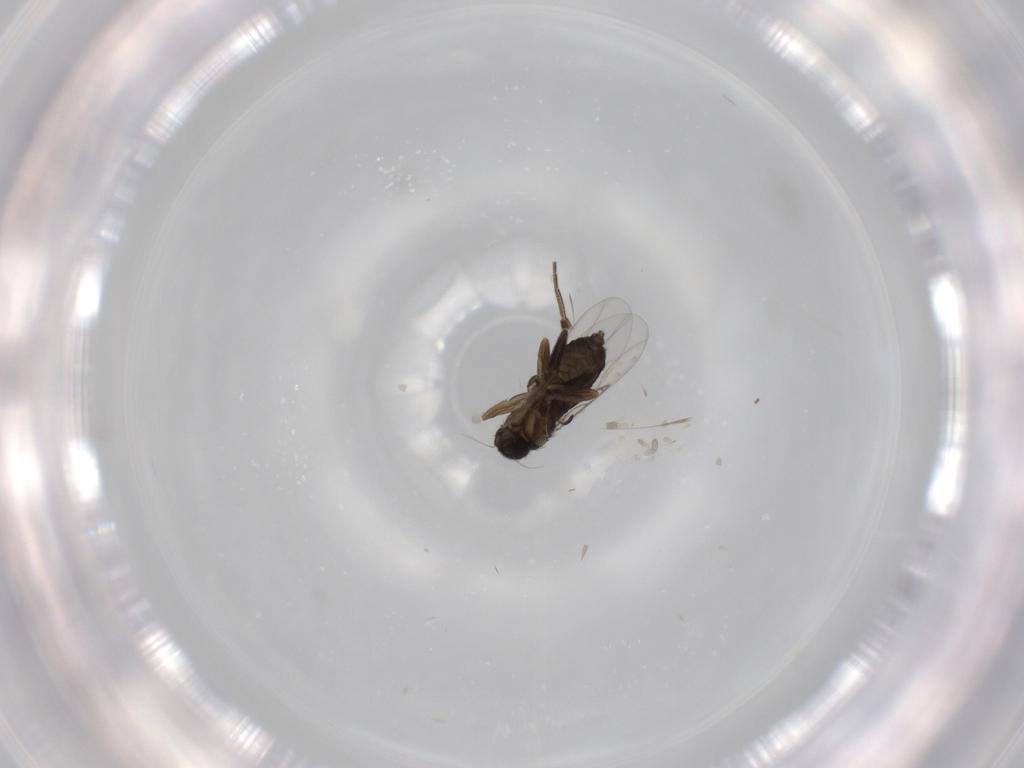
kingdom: Animalia
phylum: Arthropoda
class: Insecta
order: Diptera
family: Phoridae
